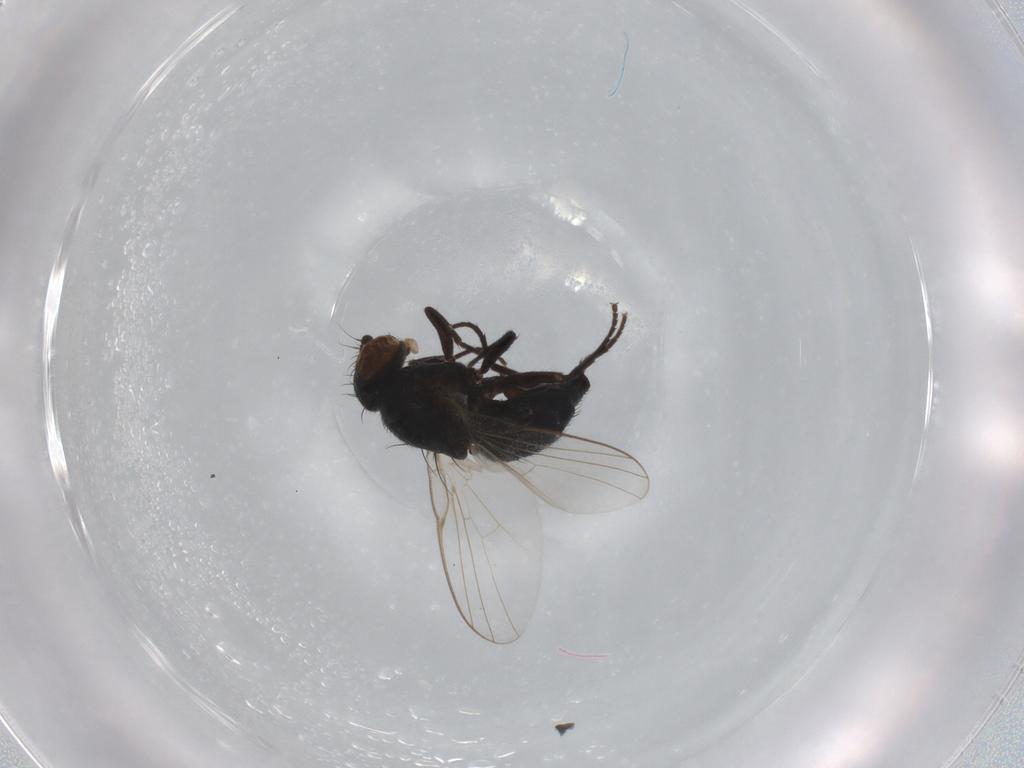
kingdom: Animalia
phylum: Arthropoda
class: Insecta
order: Diptera
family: Agromyzidae
